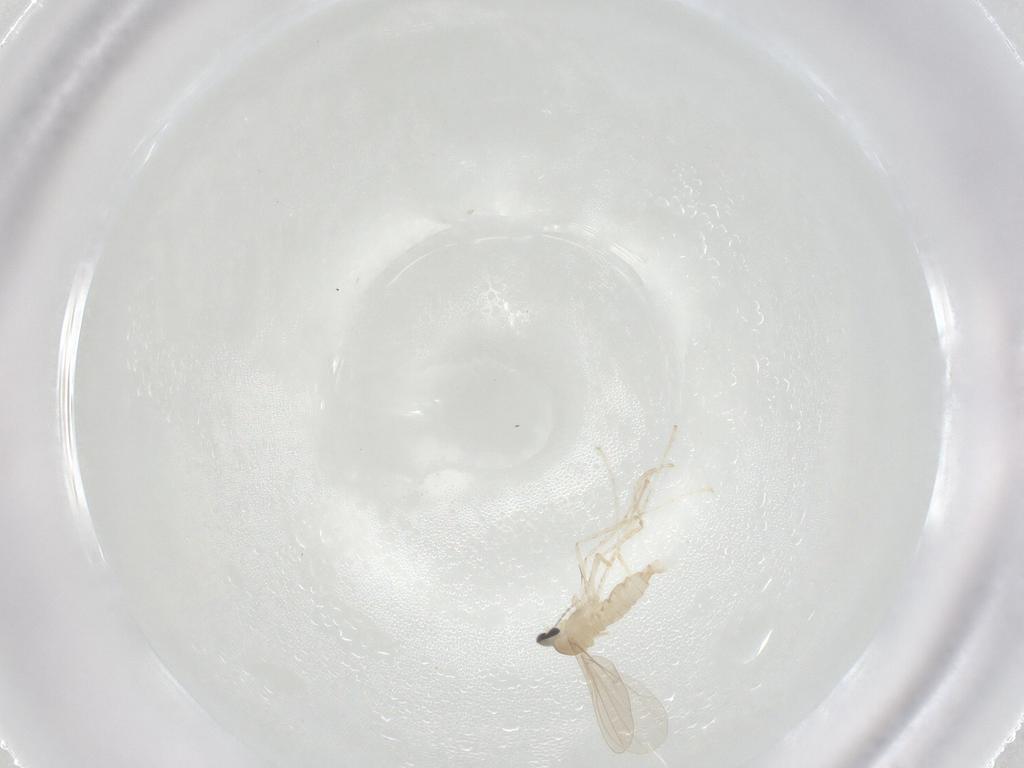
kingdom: Animalia
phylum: Arthropoda
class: Insecta
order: Diptera
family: Cecidomyiidae
